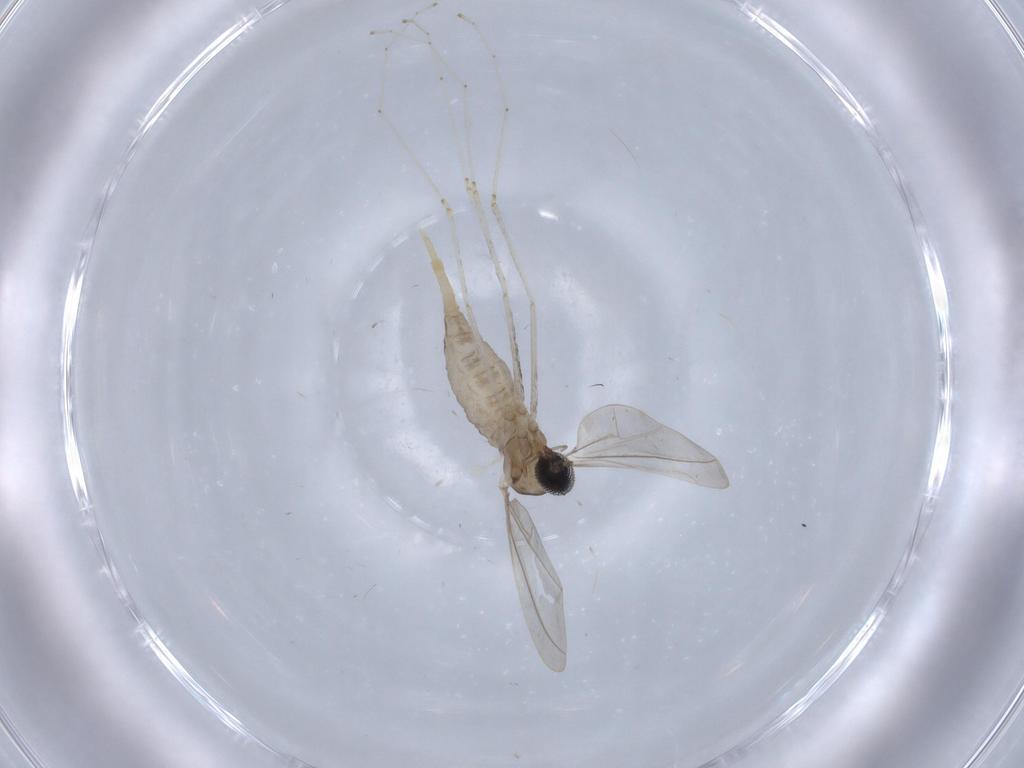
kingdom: Animalia
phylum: Arthropoda
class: Insecta
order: Diptera
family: Cecidomyiidae
